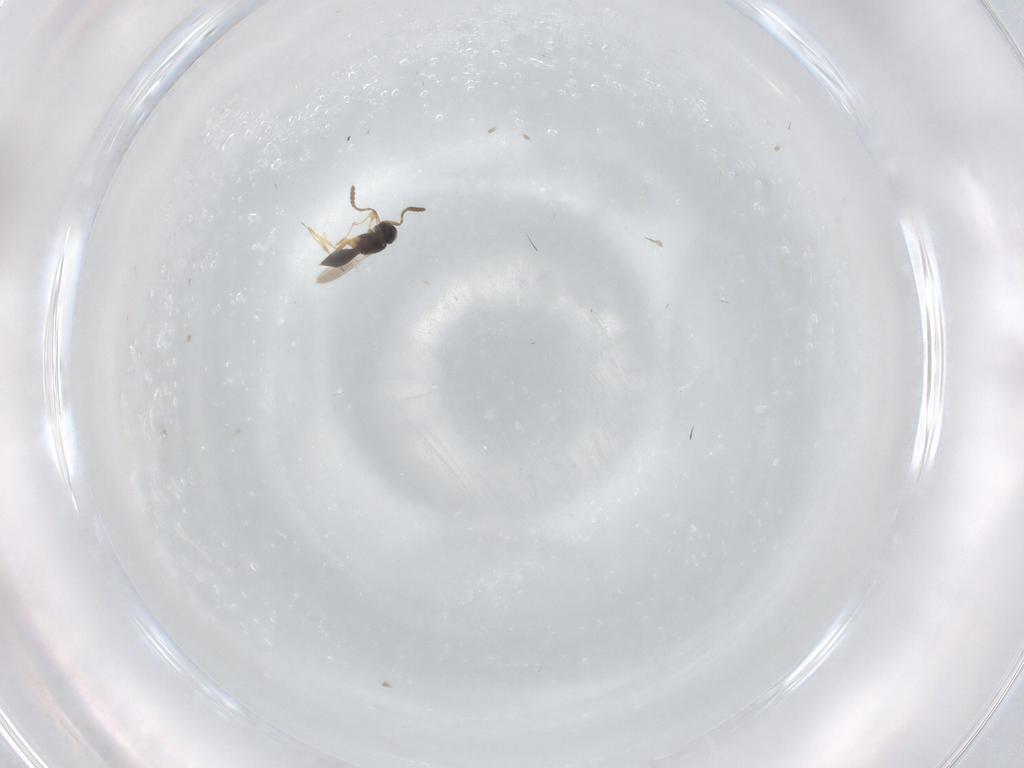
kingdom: Animalia
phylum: Arthropoda
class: Insecta
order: Hymenoptera
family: Scelionidae
